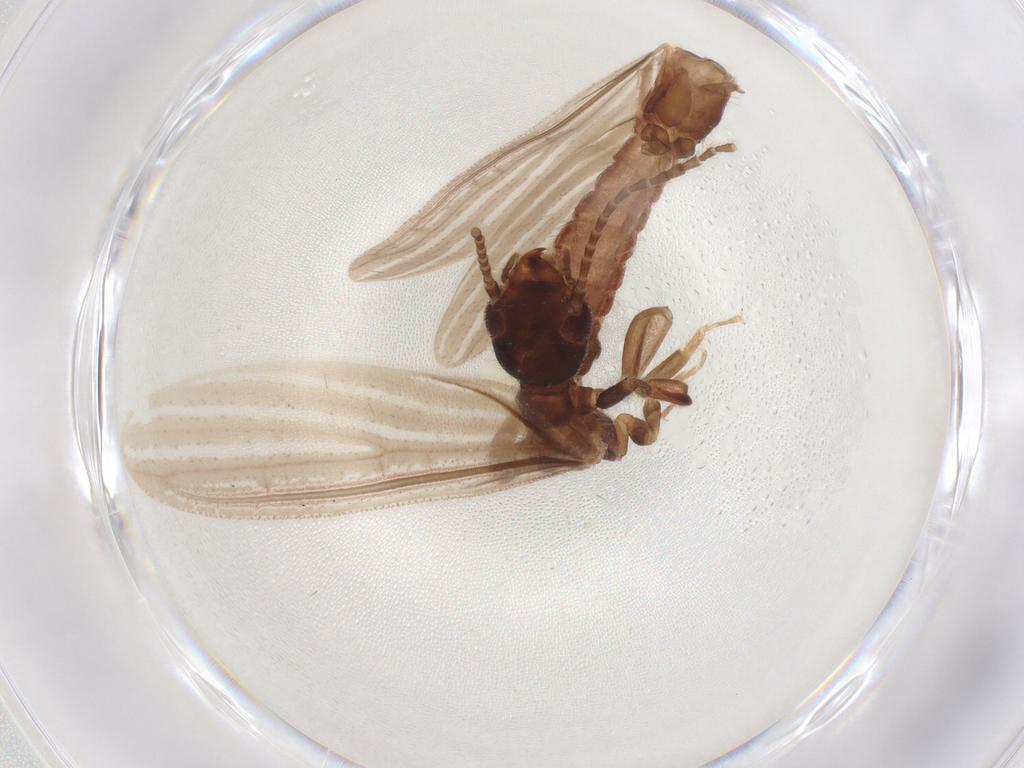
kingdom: Animalia
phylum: Arthropoda
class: Insecta
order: Embioptera
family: Oligotomidae
